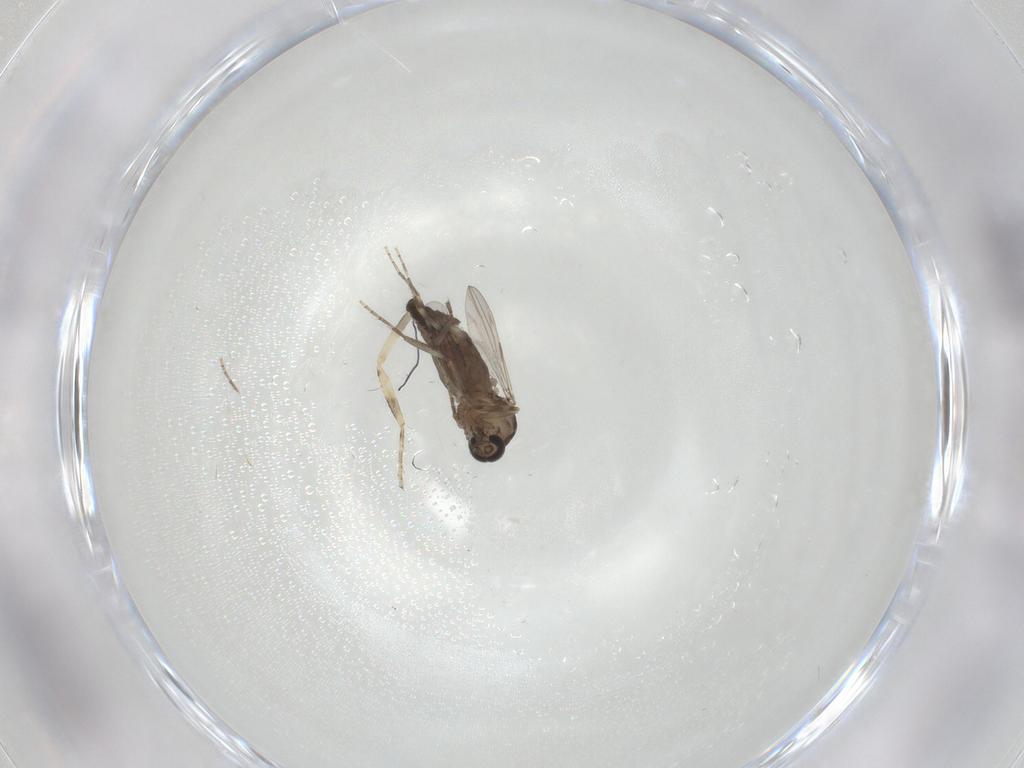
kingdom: Animalia
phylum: Arthropoda
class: Insecta
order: Diptera
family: Ceratopogonidae
